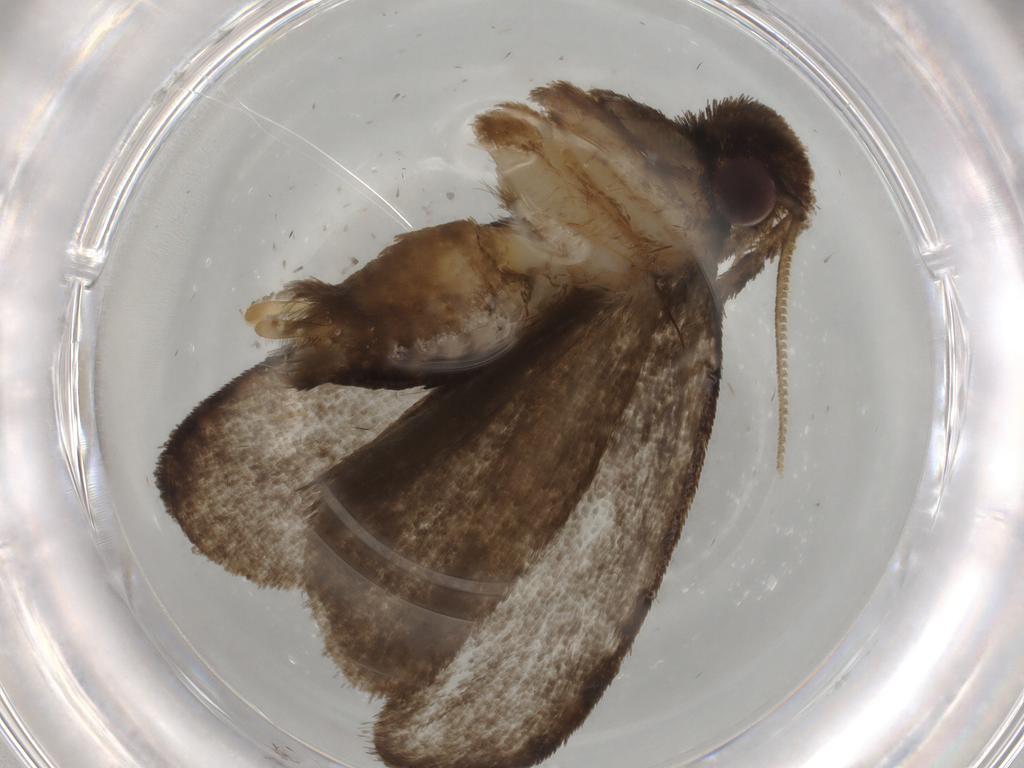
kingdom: Animalia
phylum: Arthropoda
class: Insecta
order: Lepidoptera
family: Tineidae
